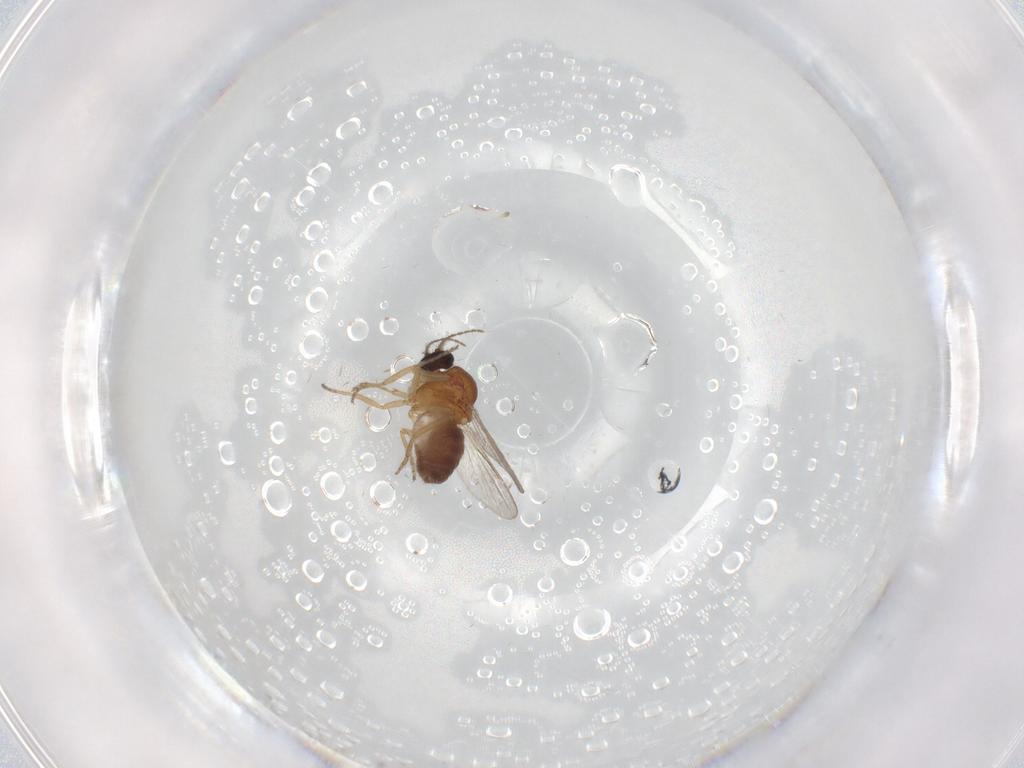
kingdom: Animalia
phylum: Arthropoda
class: Insecta
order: Diptera
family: Ceratopogonidae
